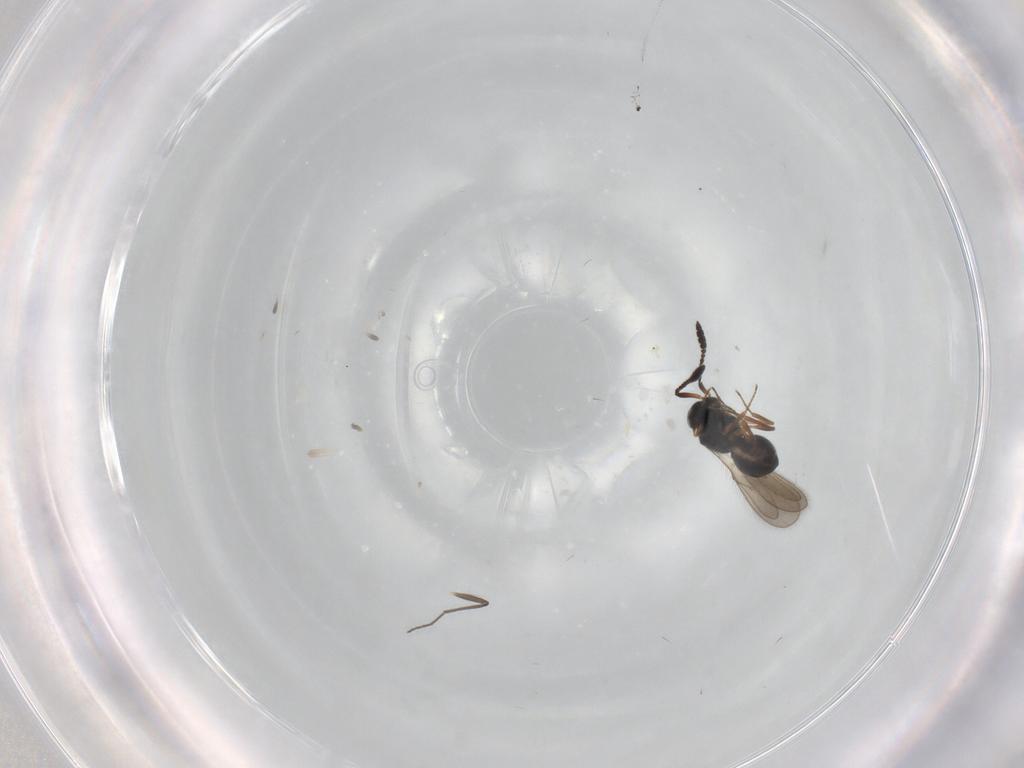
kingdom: Animalia
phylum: Arthropoda
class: Insecta
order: Hymenoptera
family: Scelionidae
